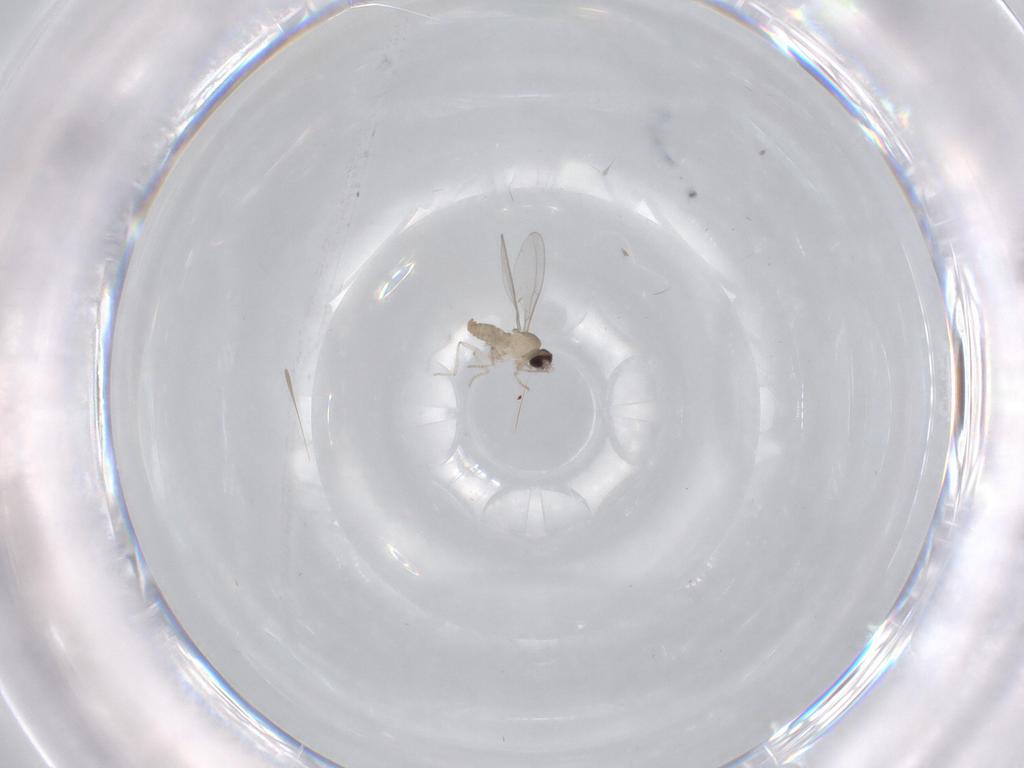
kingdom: Animalia
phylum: Arthropoda
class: Insecta
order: Diptera
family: Cecidomyiidae
